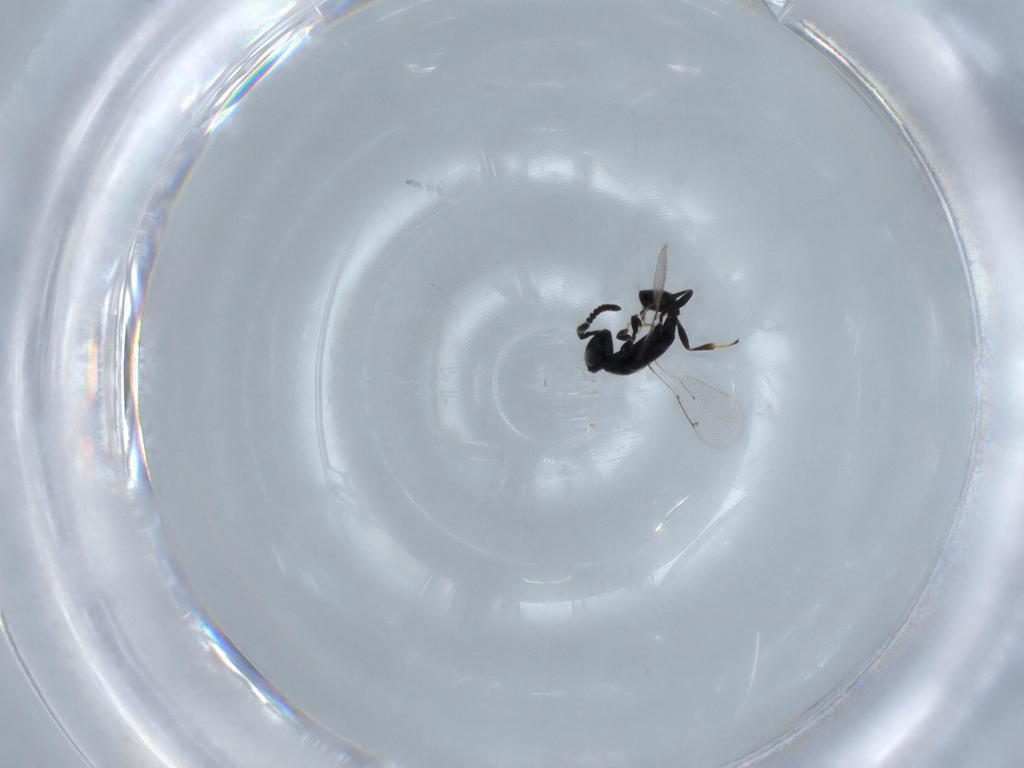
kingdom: Animalia
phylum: Arthropoda
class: Insecta
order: Hymenoptera
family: Spalangiidae
